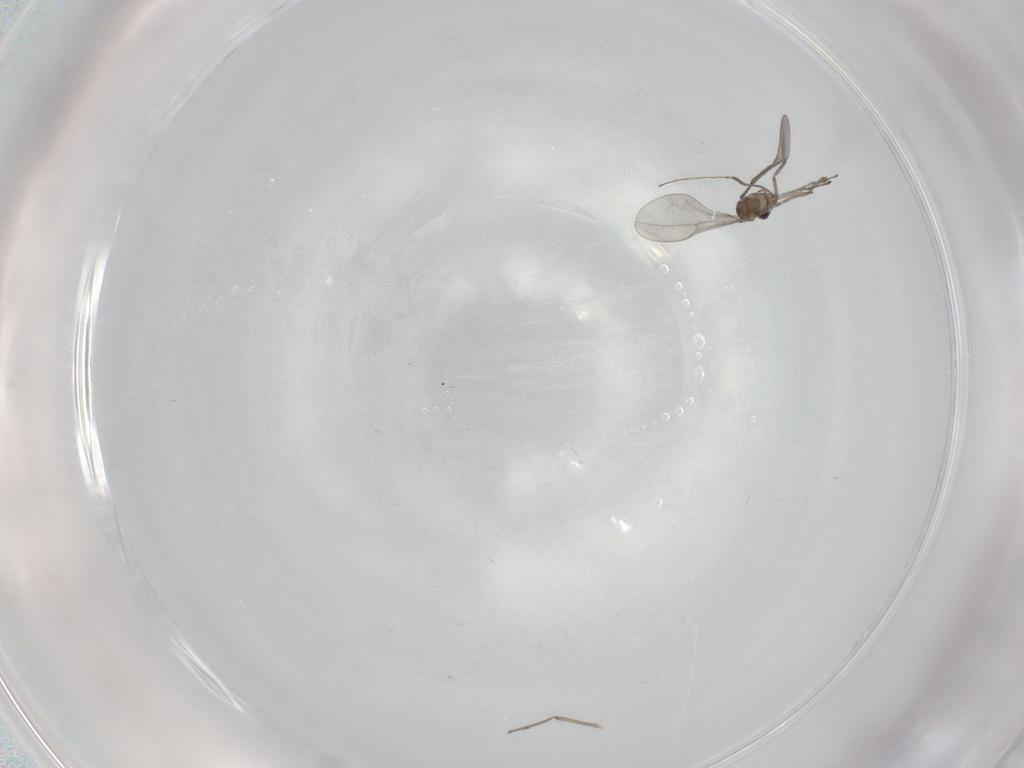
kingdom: Animalia
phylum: Arthropoda
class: Insecta
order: Diptera
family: Cecidomyiidae
